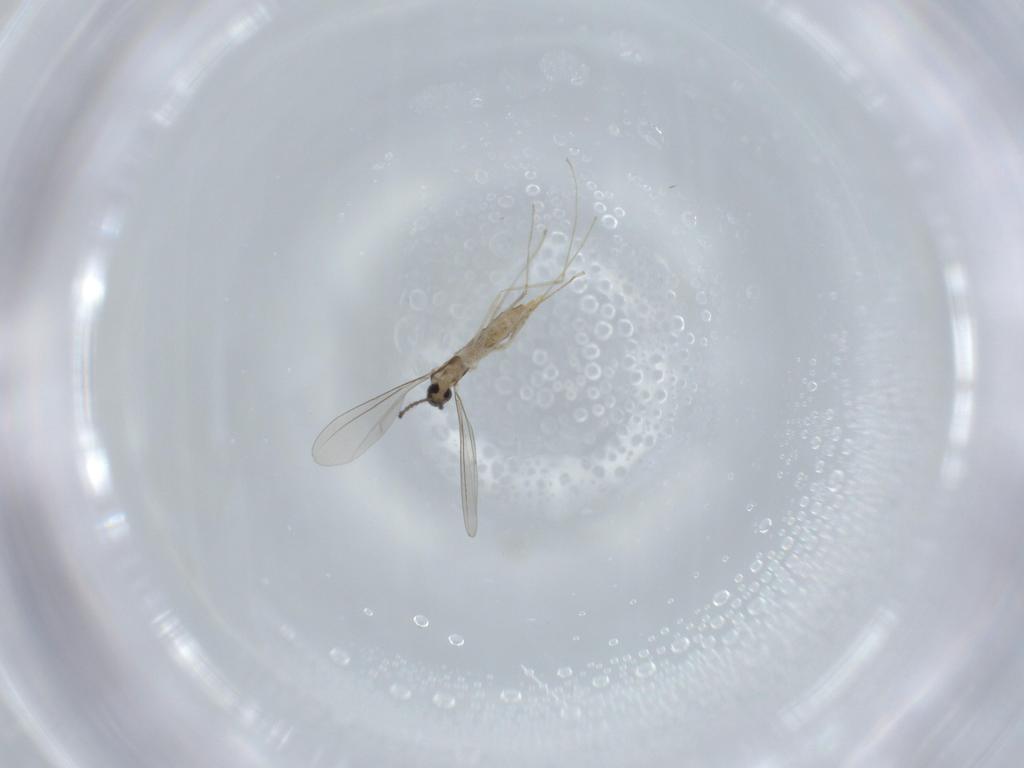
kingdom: Animalia
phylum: Arthropoda
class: Insecta
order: Diptera
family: Cecidomyiidae
